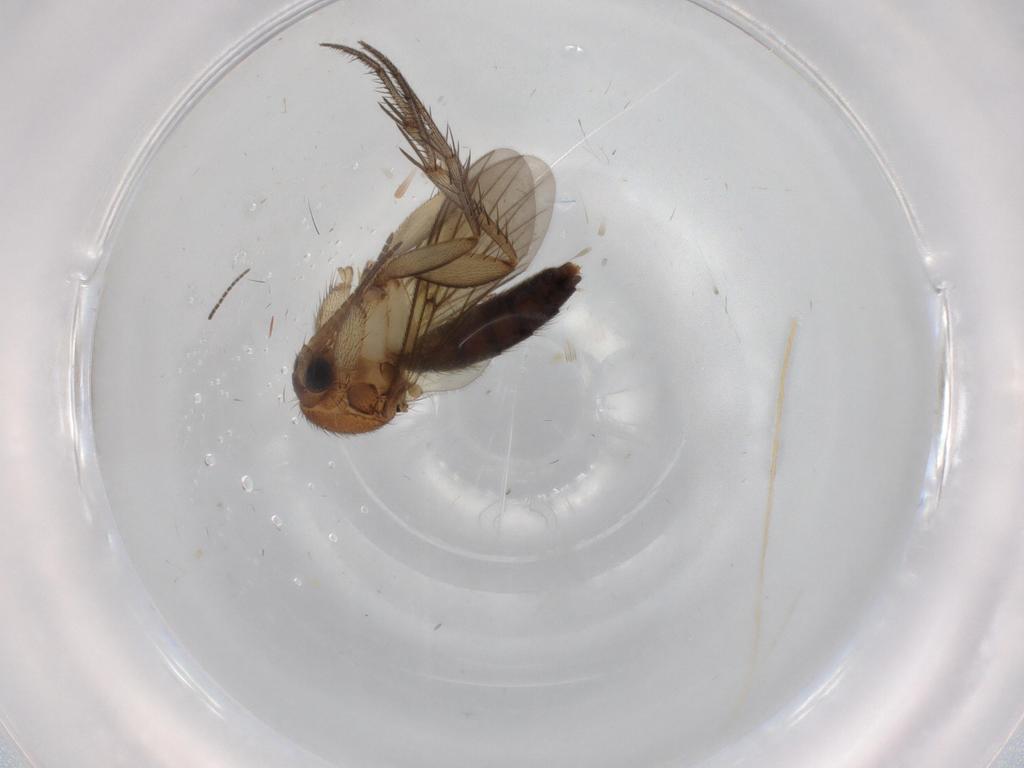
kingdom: Animalia
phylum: Arthropoda
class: Insecta
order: Diptera
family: Mycetophilidae
